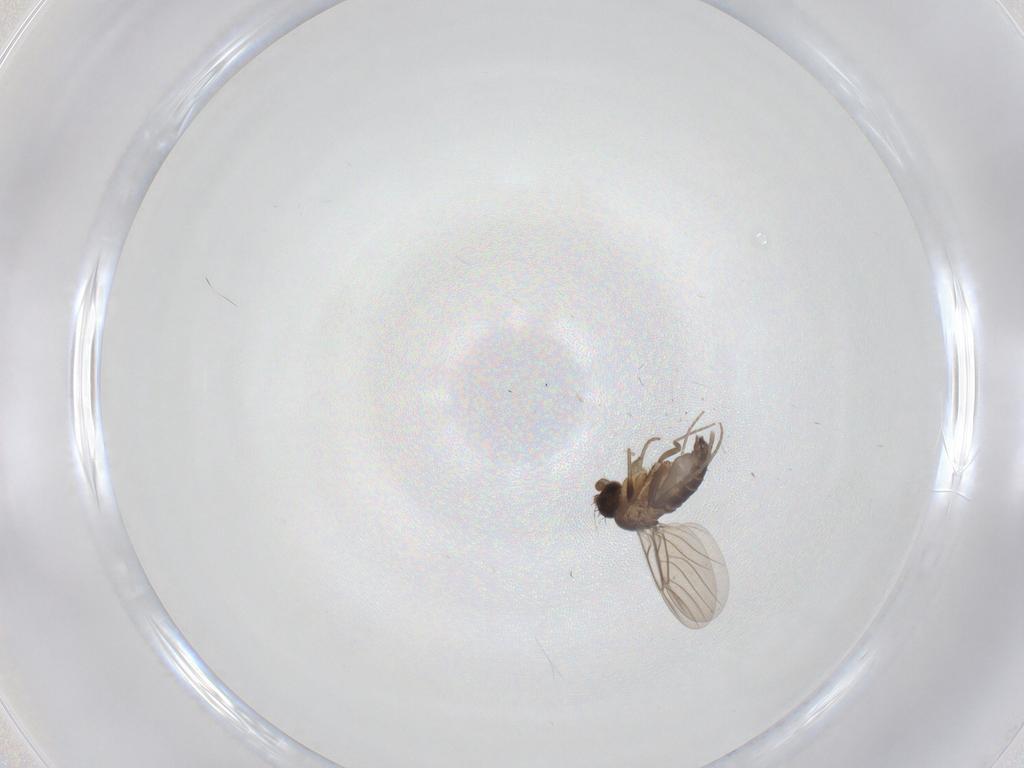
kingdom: Animalia
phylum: Arthropoda
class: Insecta
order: Diptera
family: Phoridae
